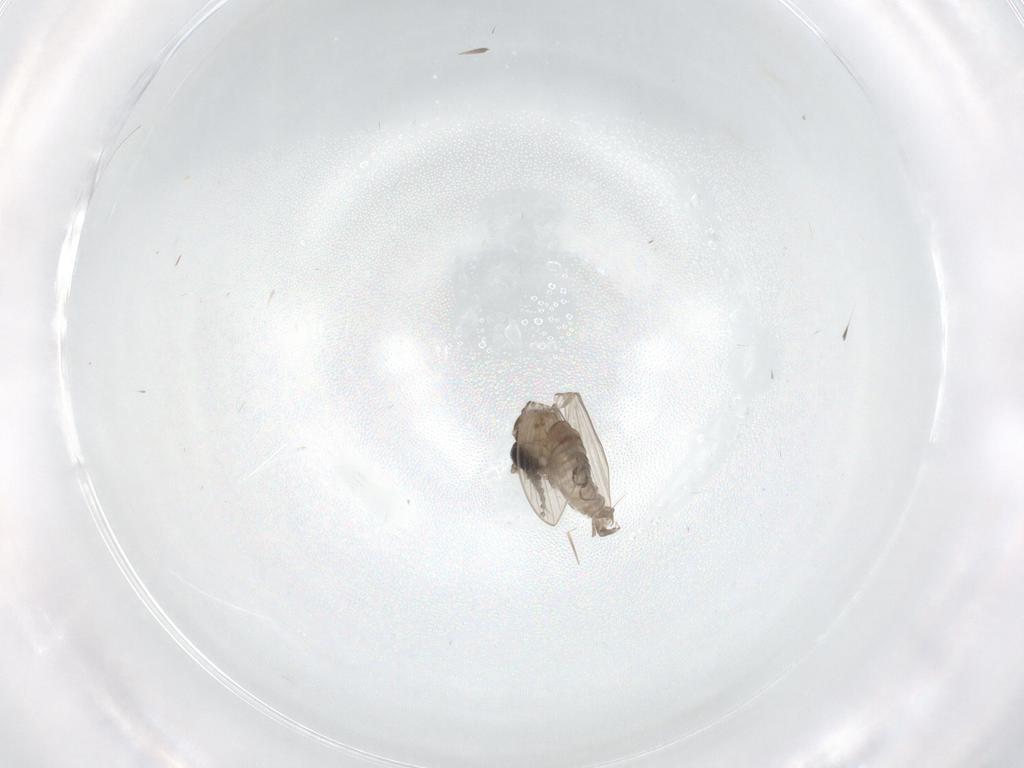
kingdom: Animalia
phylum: Arthropoda
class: Insecta
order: Diptera
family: Psychodidae
